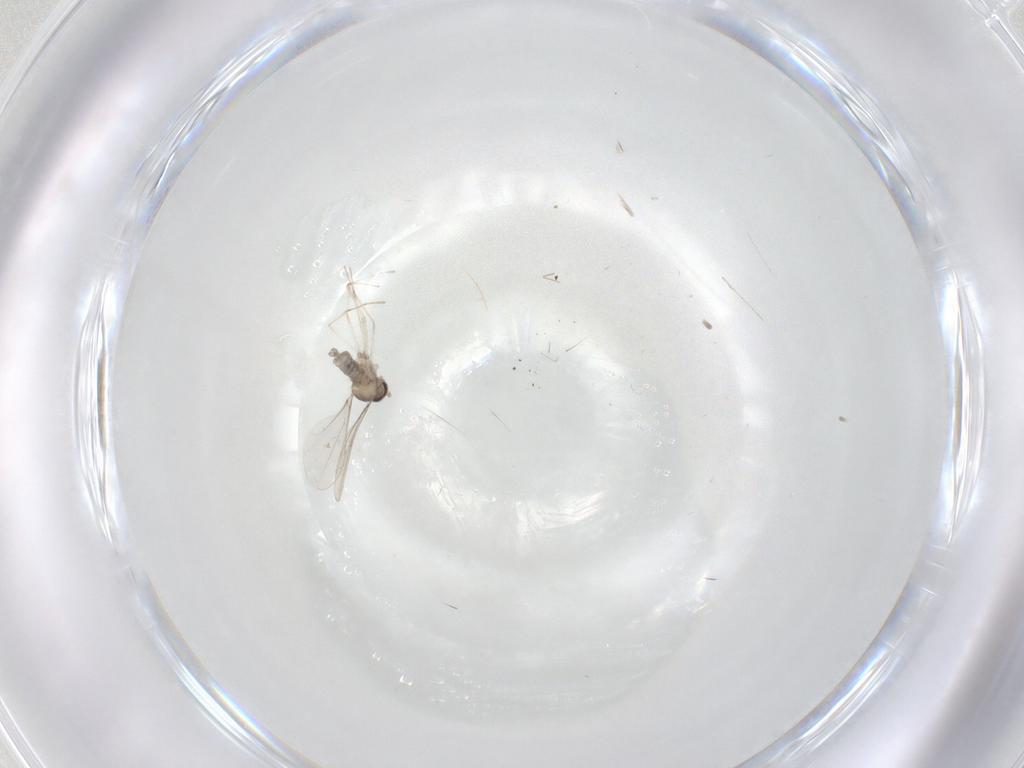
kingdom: Animalia
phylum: Arthropoda
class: Insecta
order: Diptera
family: Cecidomyiidae
